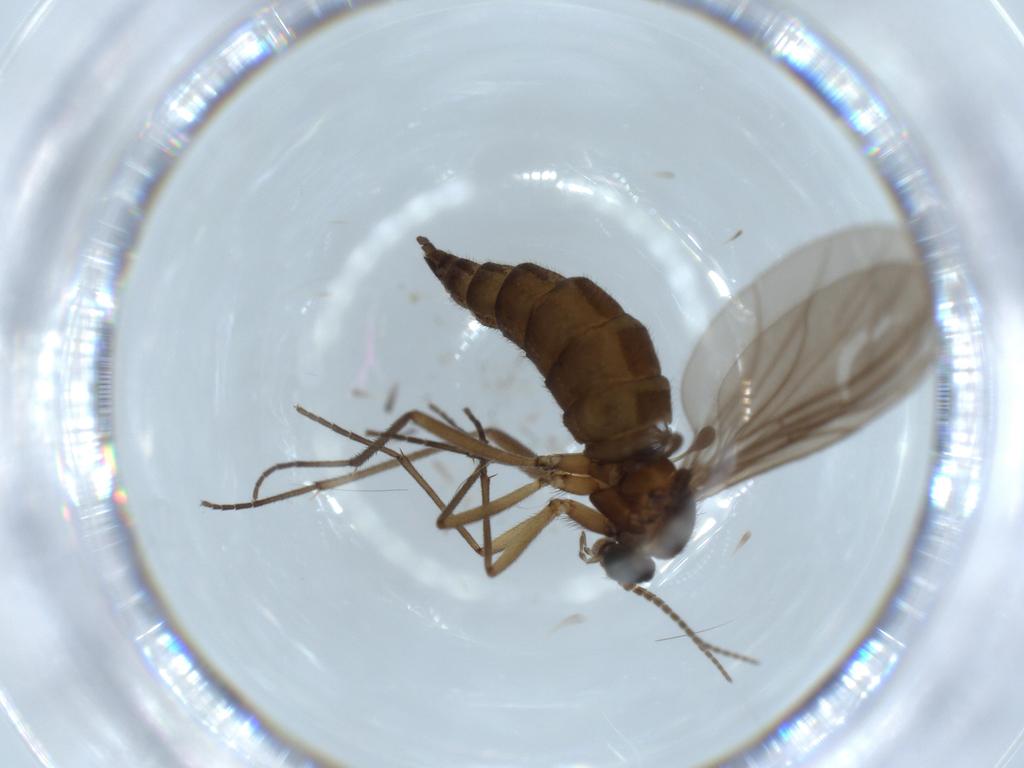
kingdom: Animalia
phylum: Arthropoda
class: Insecta
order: Diptera
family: Sciaridae
